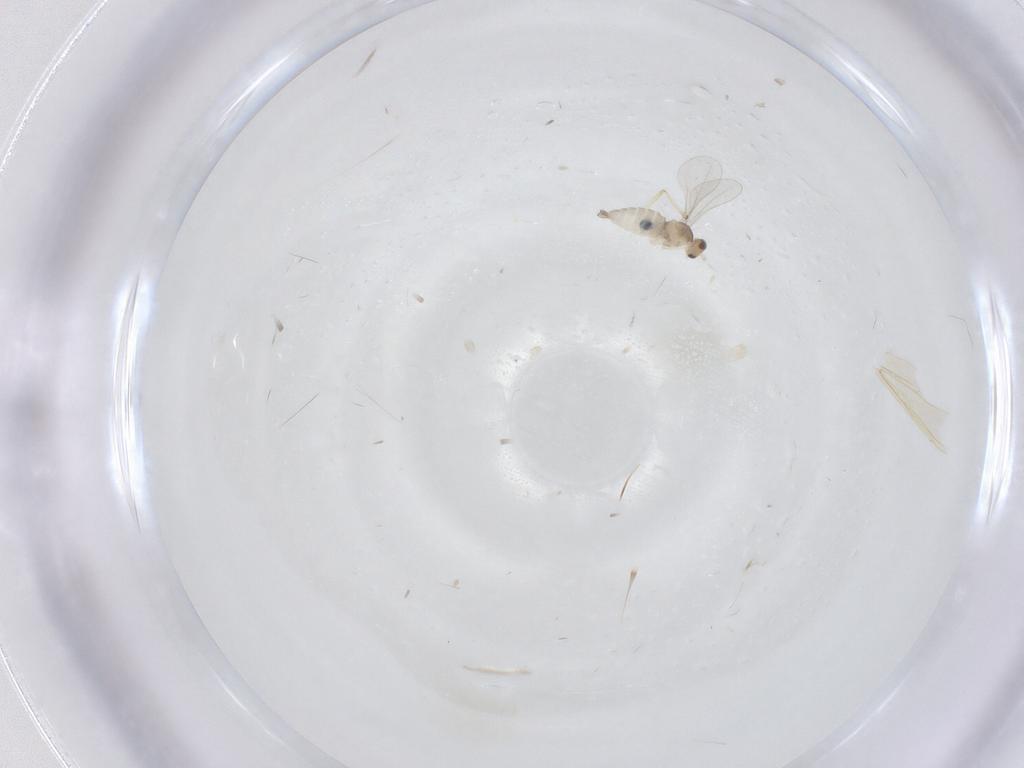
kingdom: Animalia
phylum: Arthropoda
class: Insecta
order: Diptera
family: Chironomidae
